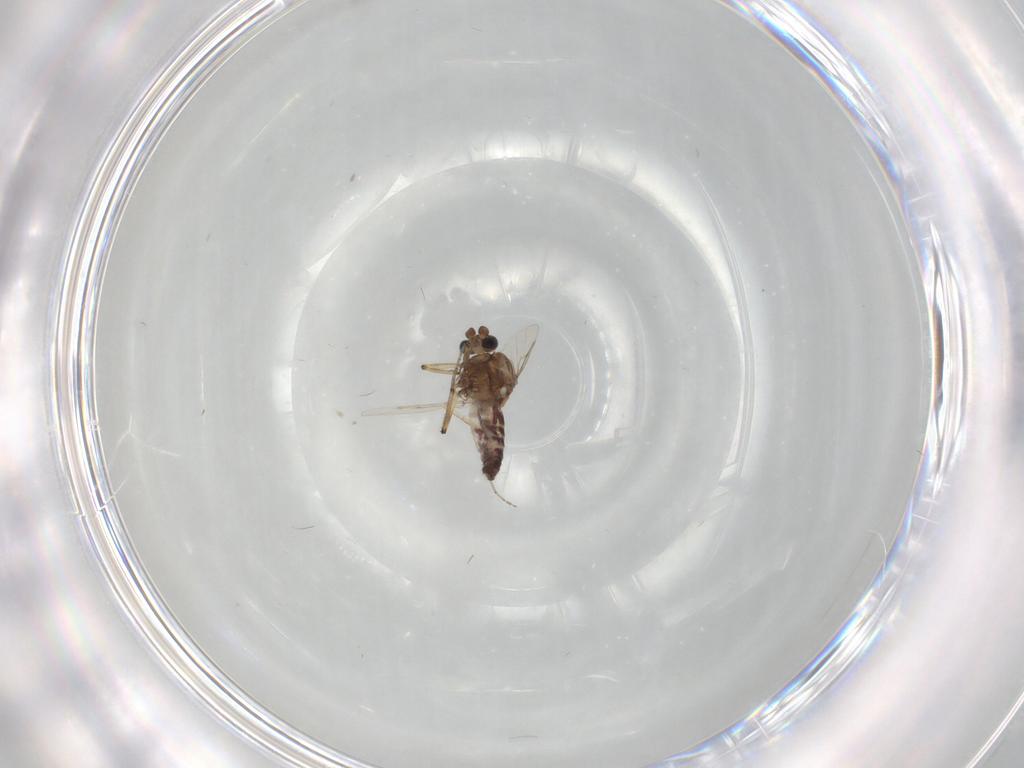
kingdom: Animalia
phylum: Arthropoda
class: Insecta
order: Diptera
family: Ceratopogonidae
